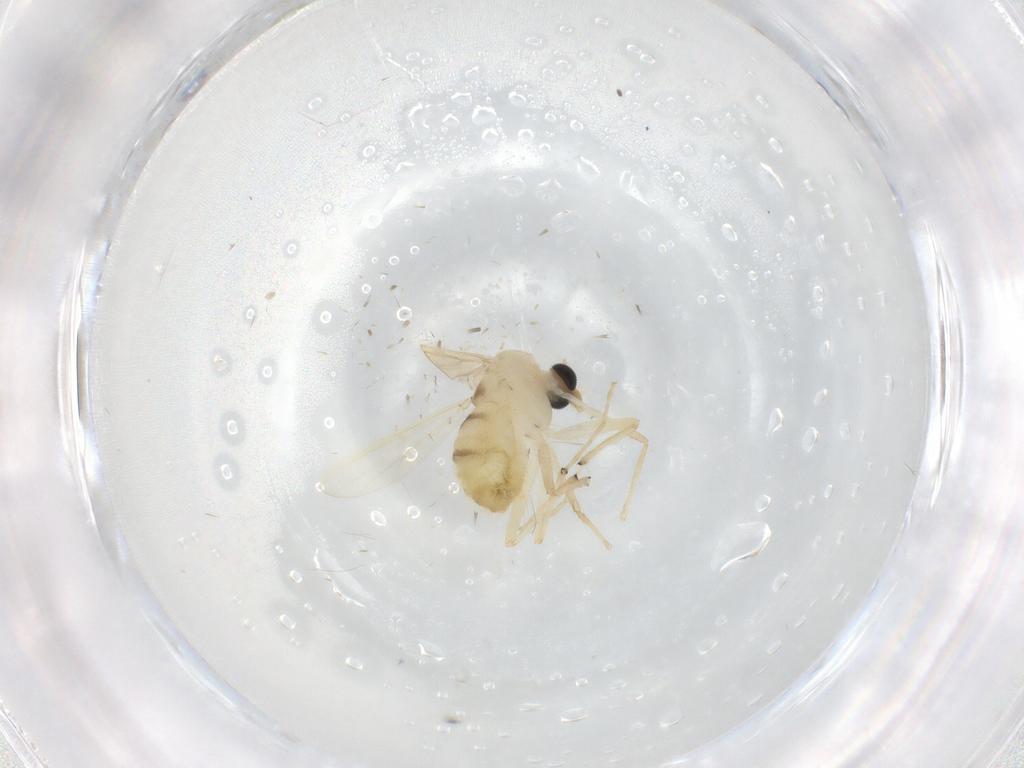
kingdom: Animalia
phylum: Arthropoda
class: Insecta
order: Diptera
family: Chironomidae
